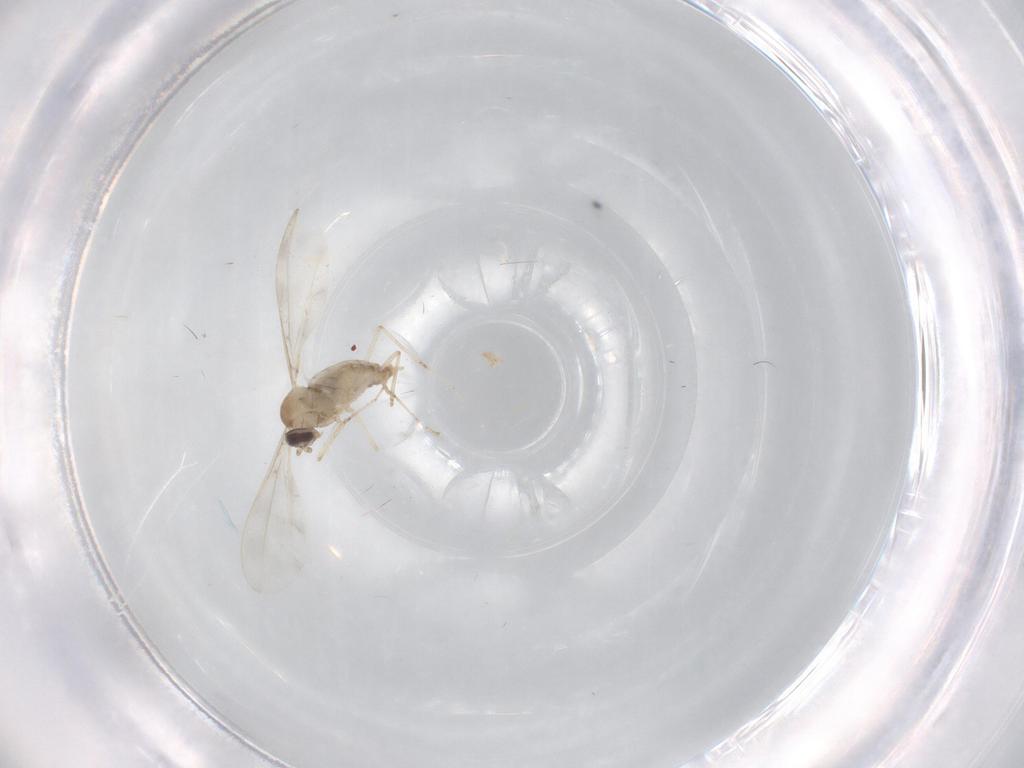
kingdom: Animalia
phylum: Arthropoda
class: Insecta
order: Diptera
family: Cecidomyiidae
